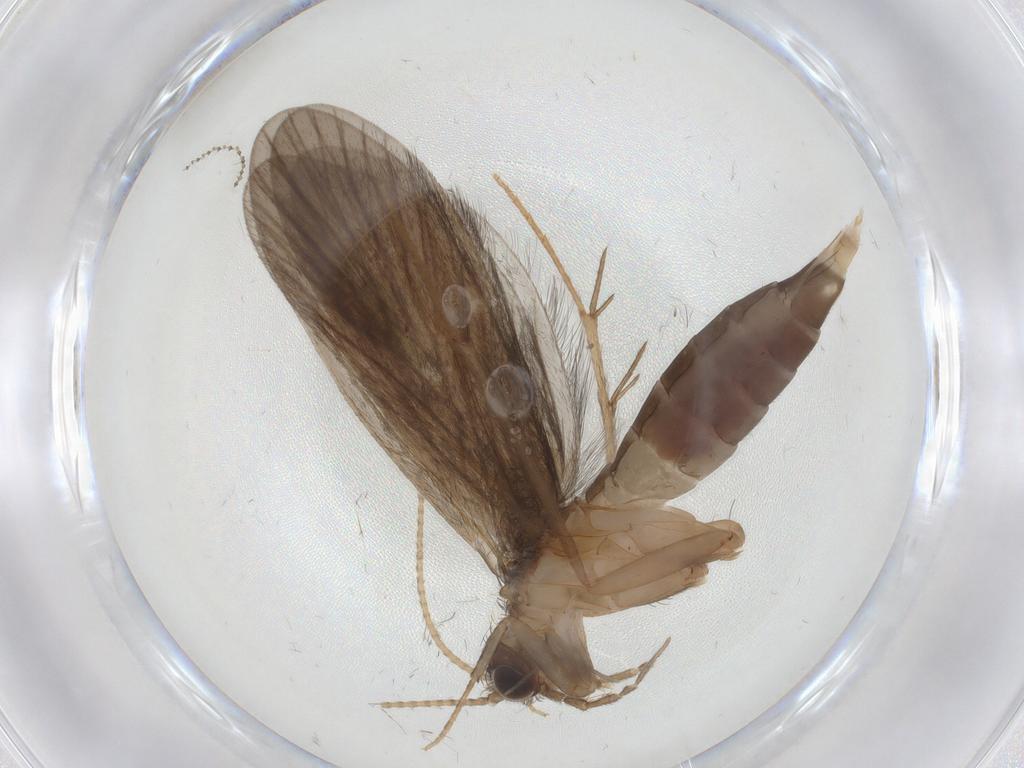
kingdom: Animalia
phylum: Arthropoda
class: Insecta
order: Trichoptera
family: Philopotamidae
